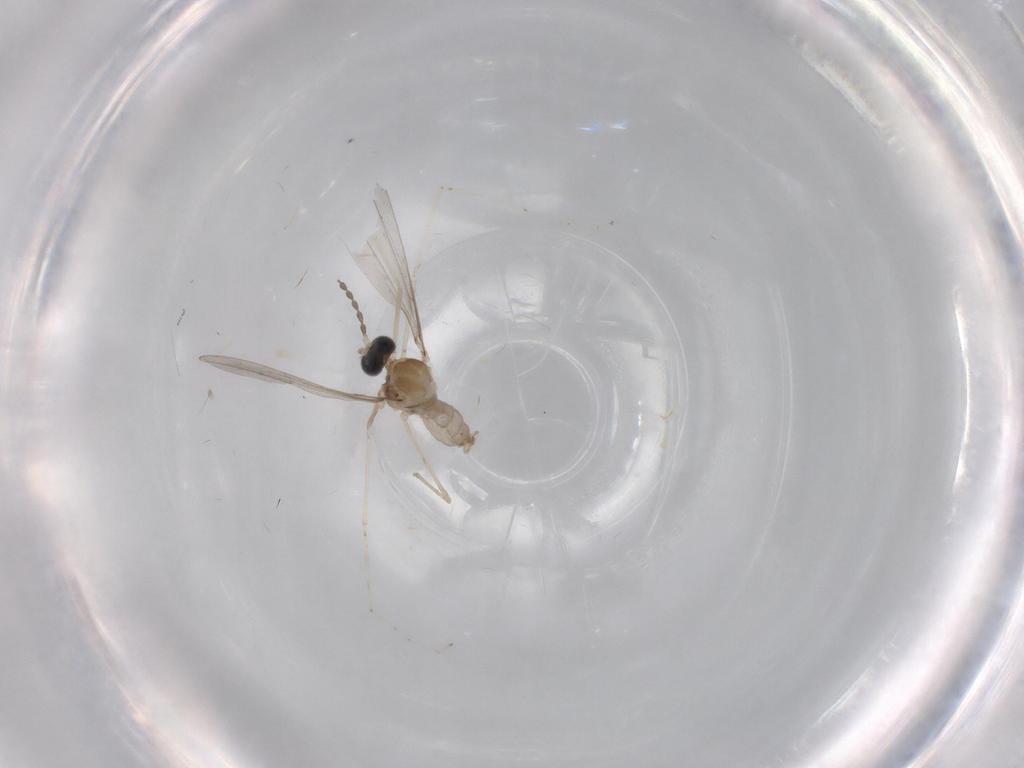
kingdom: Animalia
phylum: Arthropoda
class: Insecta
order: Diptera
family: Cecidomyiidae
